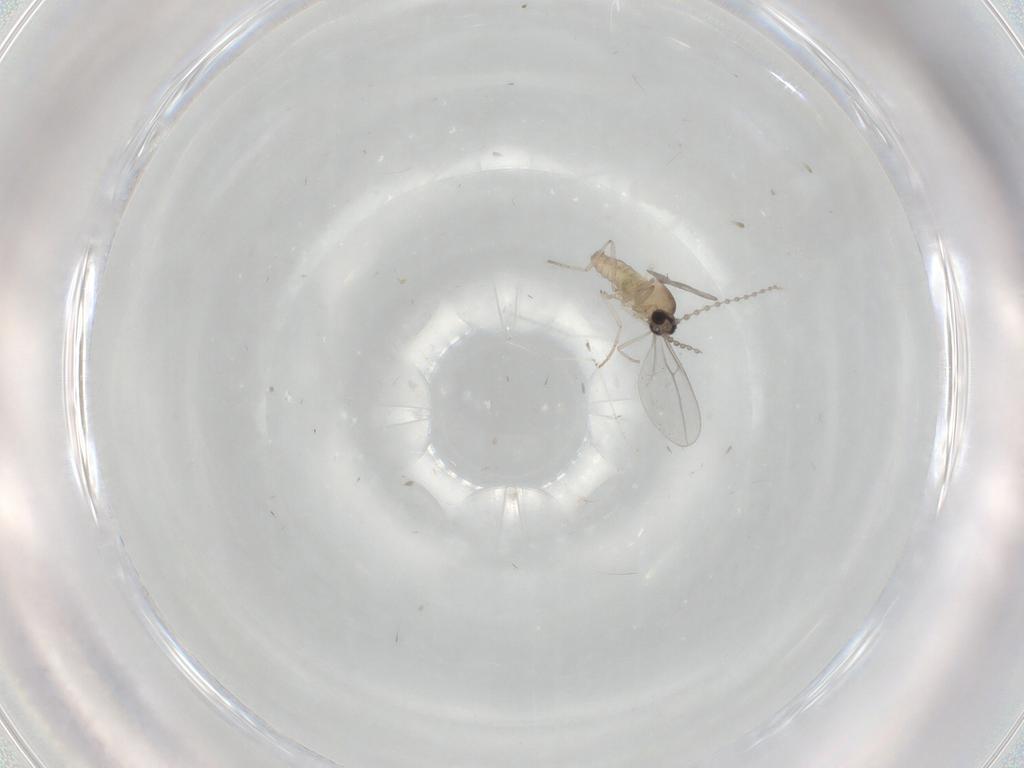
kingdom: Animalia
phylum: Arthropoda
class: Insecta
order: Diptera
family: Cecidomyiidae
